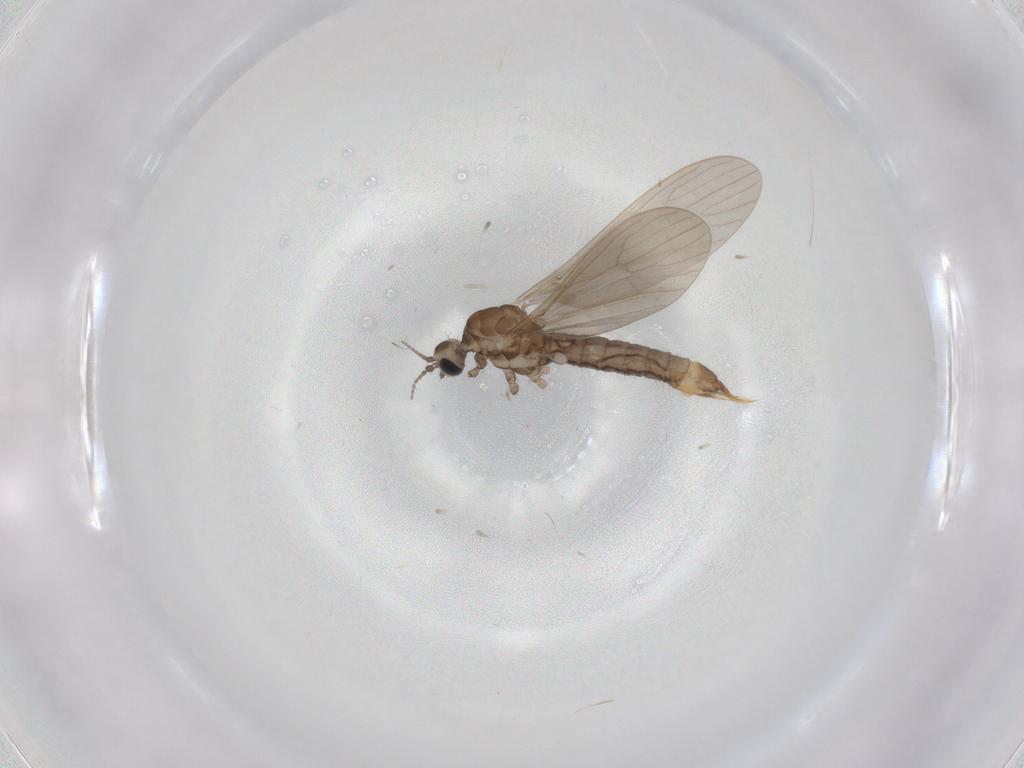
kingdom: Animalia
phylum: Arthropoda
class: Insecta
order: Diptera
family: Limoniidae
